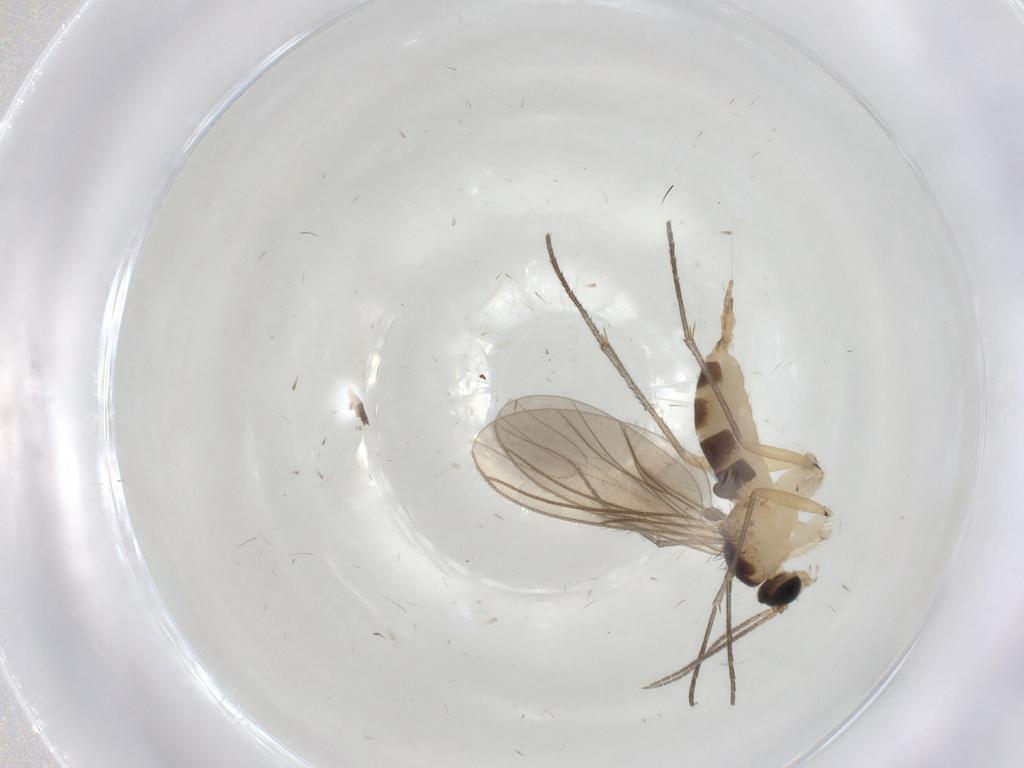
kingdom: Animalia
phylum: Arthropoda
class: Insecta
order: Diptera
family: Sciaridae
